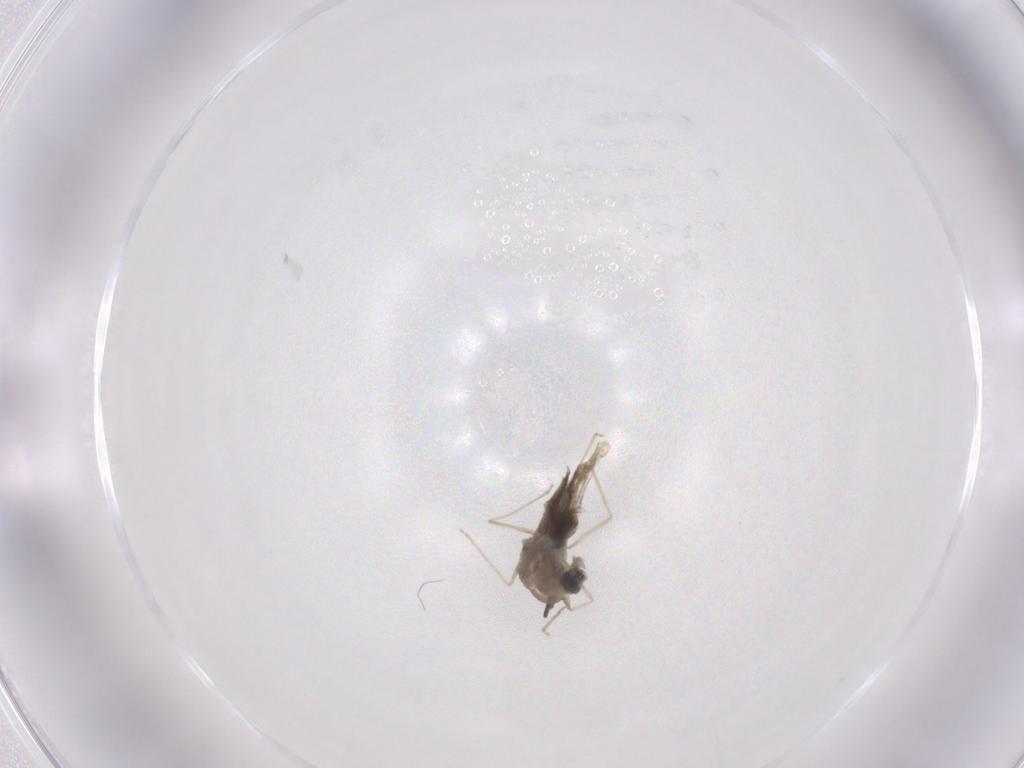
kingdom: Animalia
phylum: Arthropoda
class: Insecta
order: Diptera
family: Cecidomyiidae
